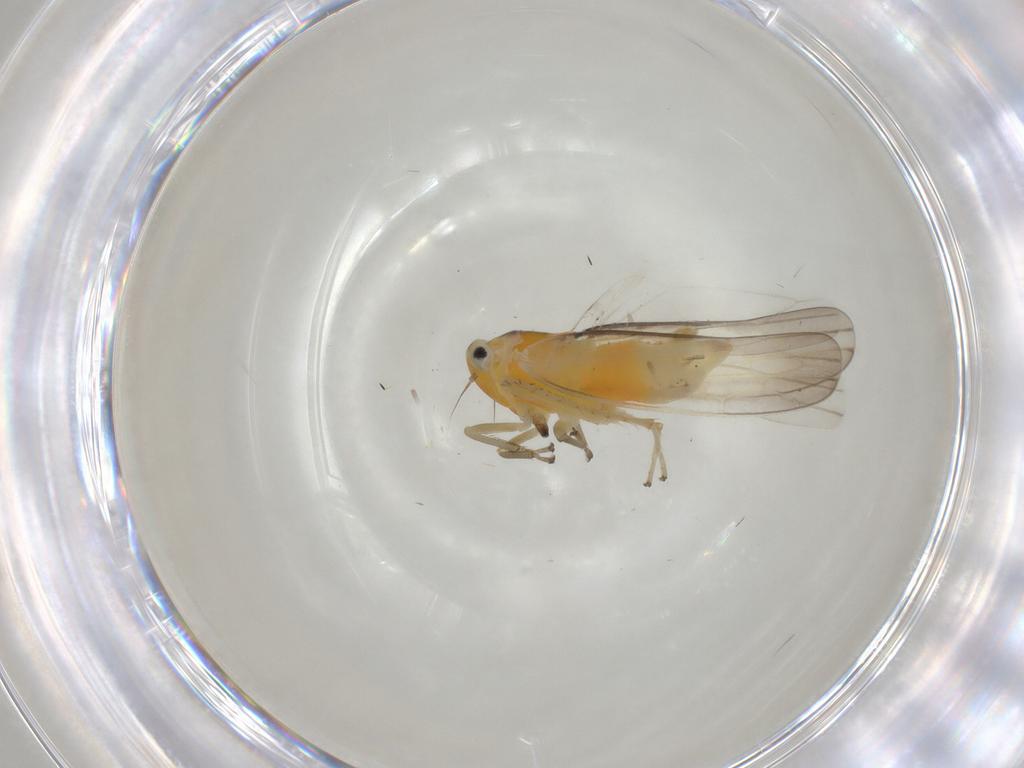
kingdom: Animalia
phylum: Arthropoda
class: Insecta
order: Hemiptera
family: Cicadellidae
